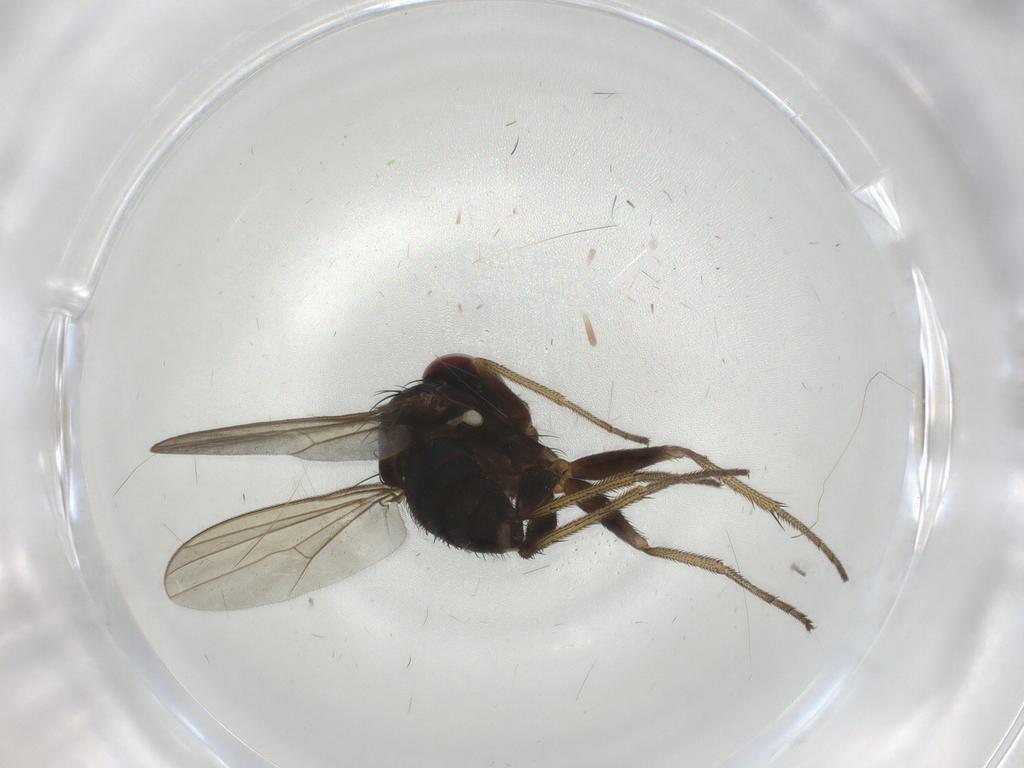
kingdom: Animalia
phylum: Arthropoda
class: Insecta
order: Diptera
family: Dolichopodidae
